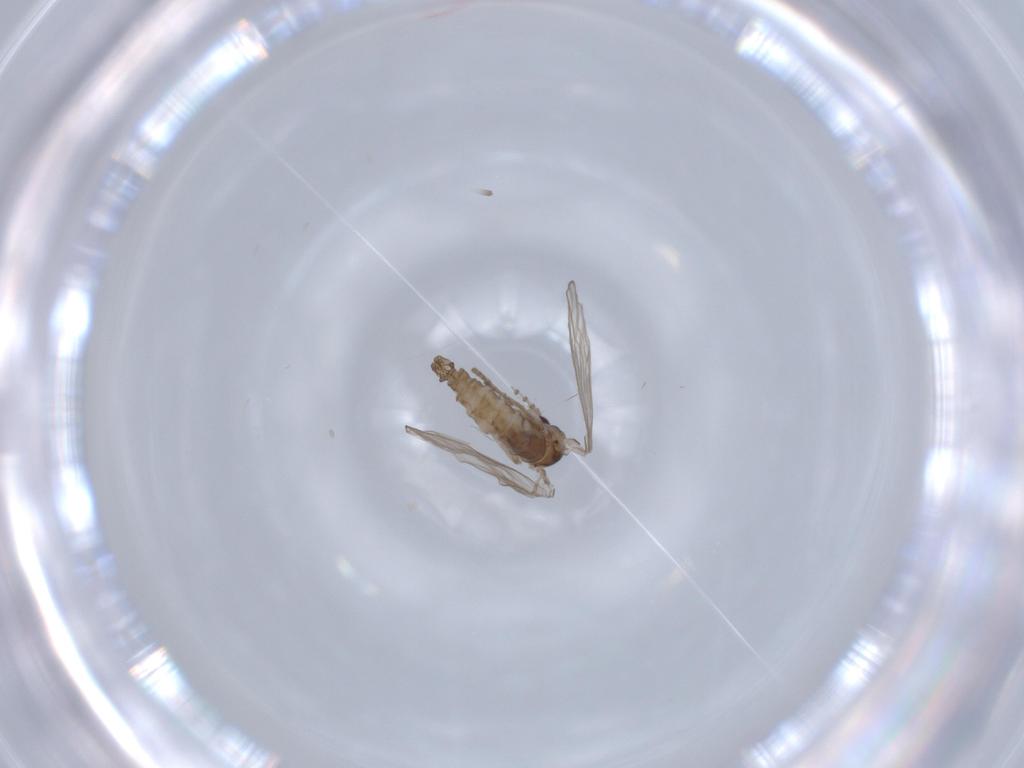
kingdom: Animalia
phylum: Arthropoda
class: Insecta
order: Diptera
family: Psychodidae
